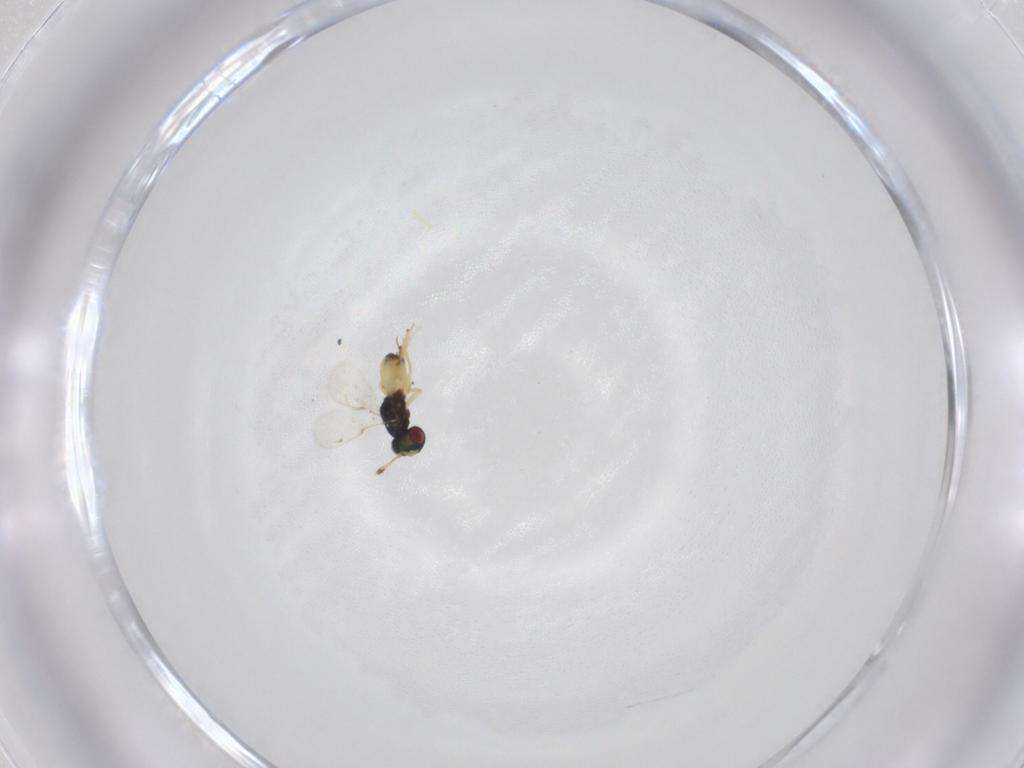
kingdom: Animalia
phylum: Arthropoda
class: Insecta
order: Hymenoptera
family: Pteromalidae
